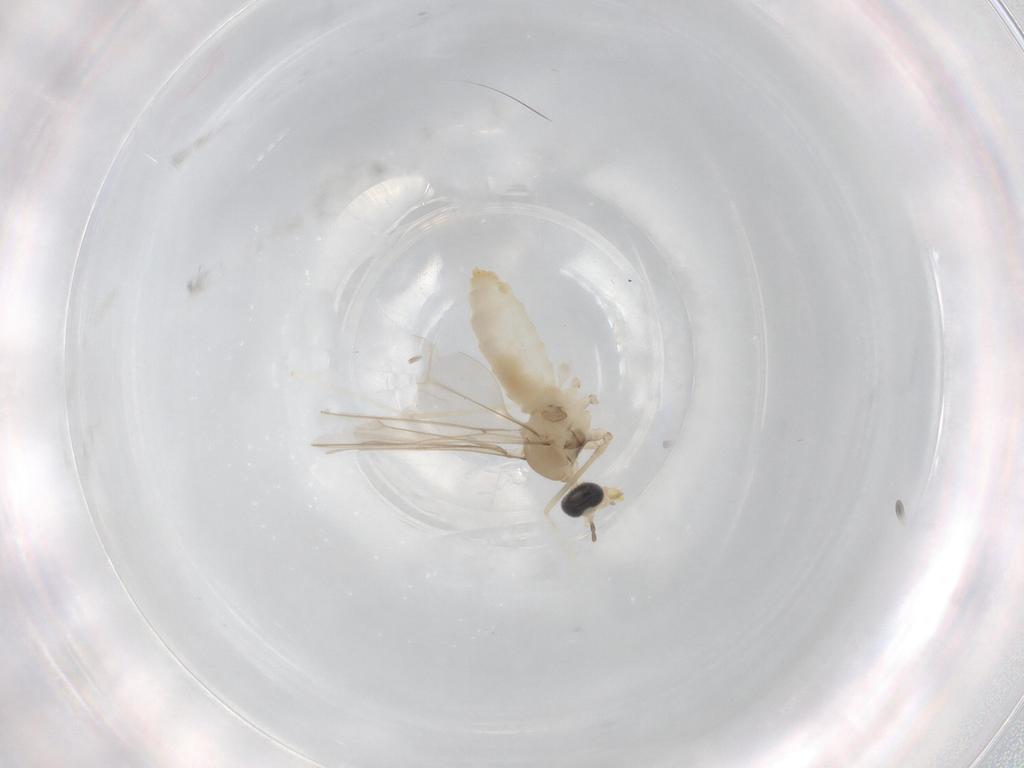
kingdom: Animalia
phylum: Arthropoda
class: Insecta
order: Diptera
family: Cecidomyiidae
